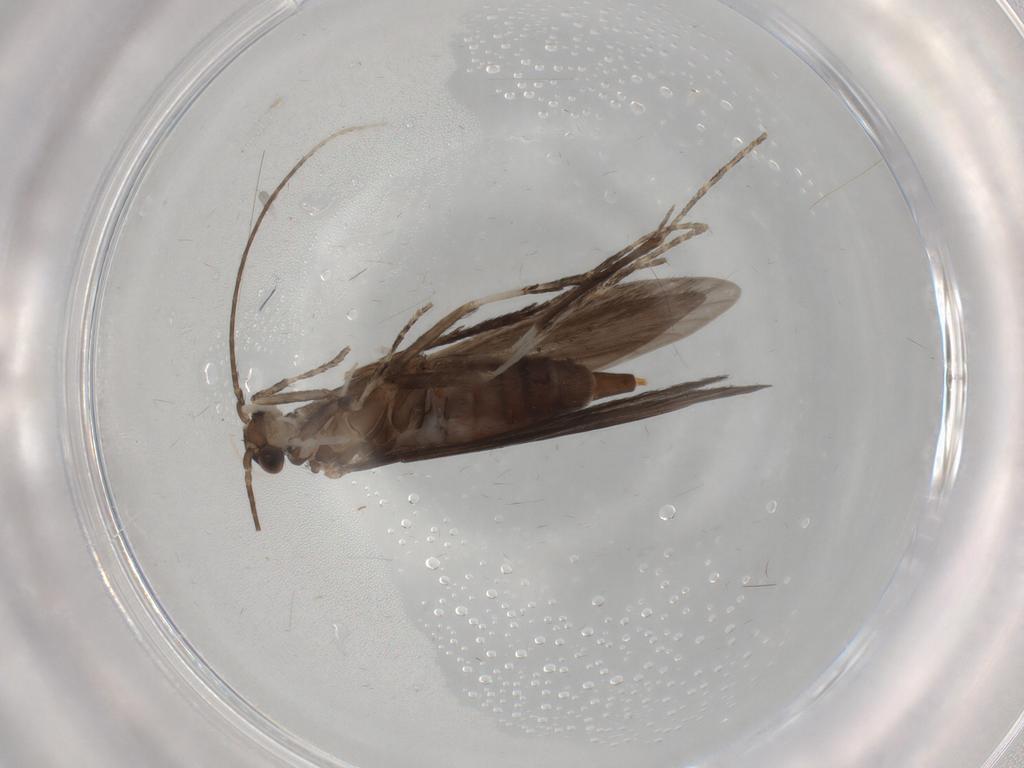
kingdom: Animalia
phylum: Arthropoda
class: Insecta
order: Trichoptera
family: Xiphocentronidae
